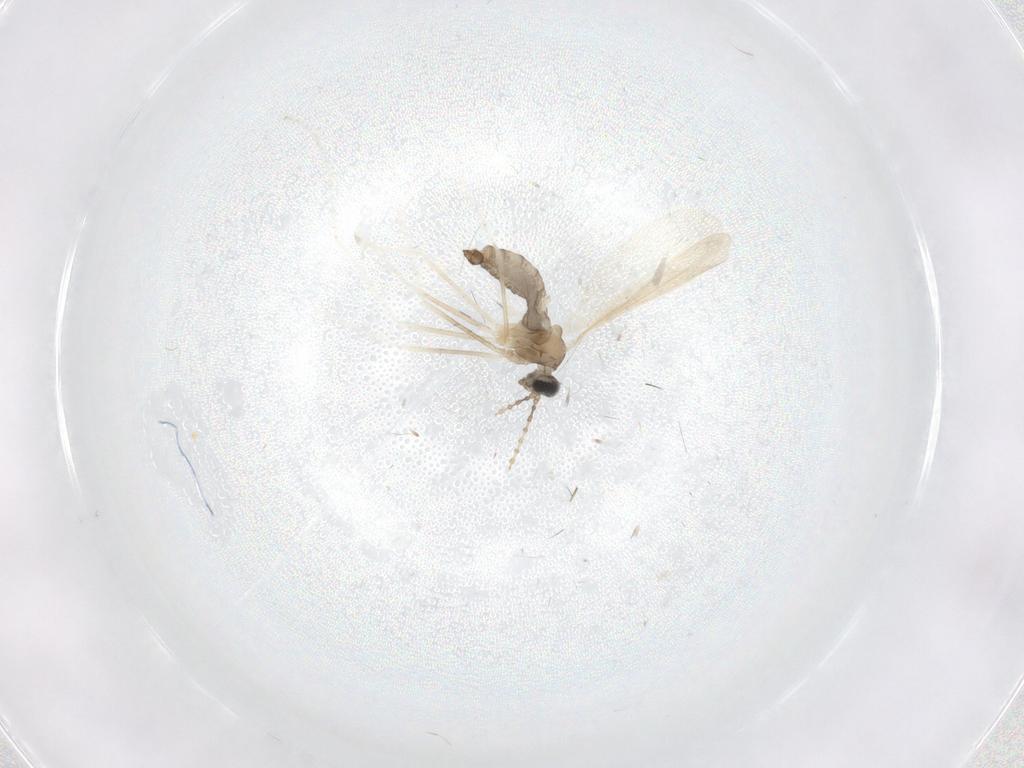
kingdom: Animalia
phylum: Arthropoda
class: Insecta
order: Diptera
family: Cecidomyiidae
